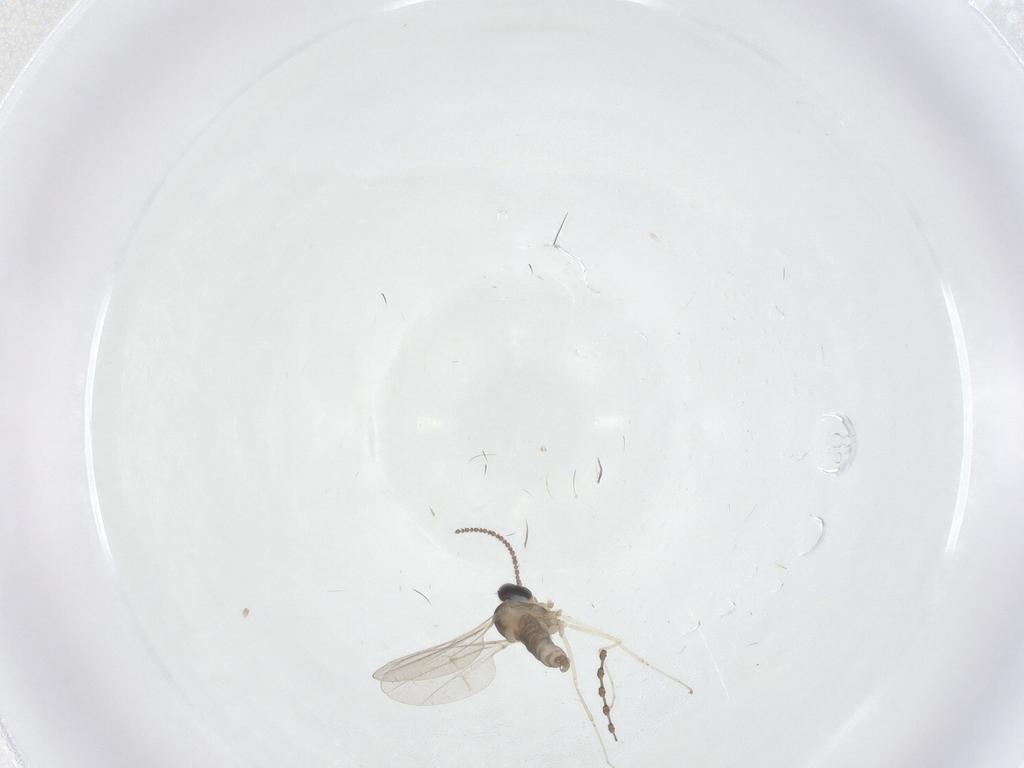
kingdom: Animalia
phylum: Arthropoda
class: Insecta
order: Diptera
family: Cecidomyiidae
